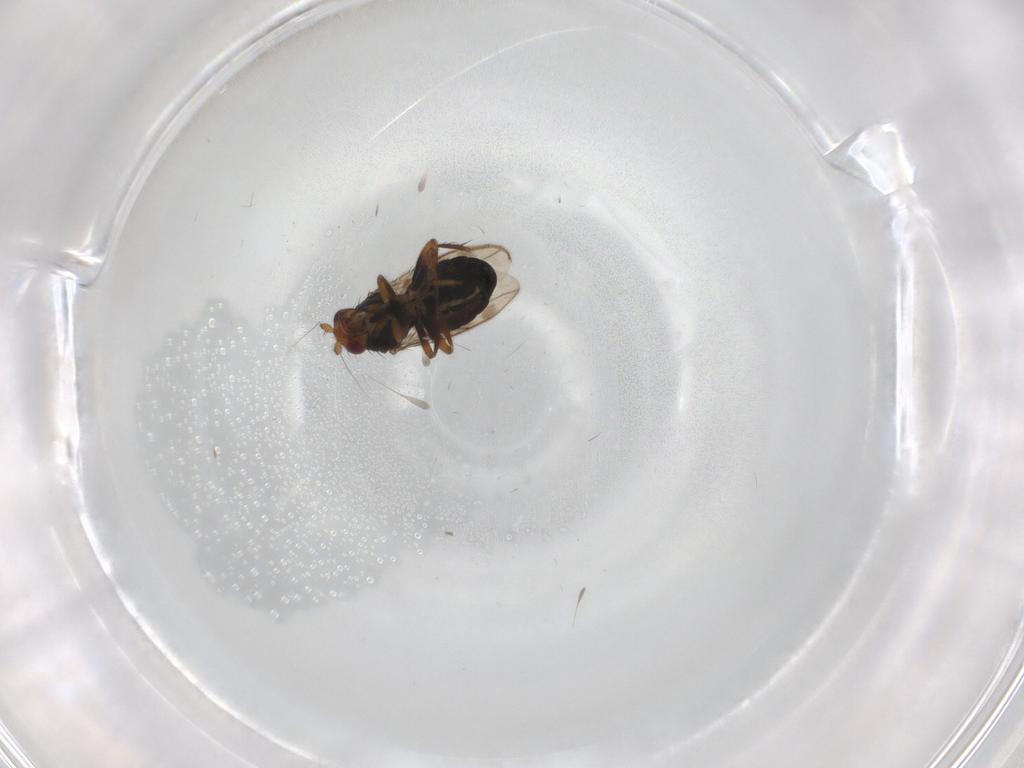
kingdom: Animalia
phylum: Arthropoda
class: Insecta
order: Diptera
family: Sphaeroceridae
